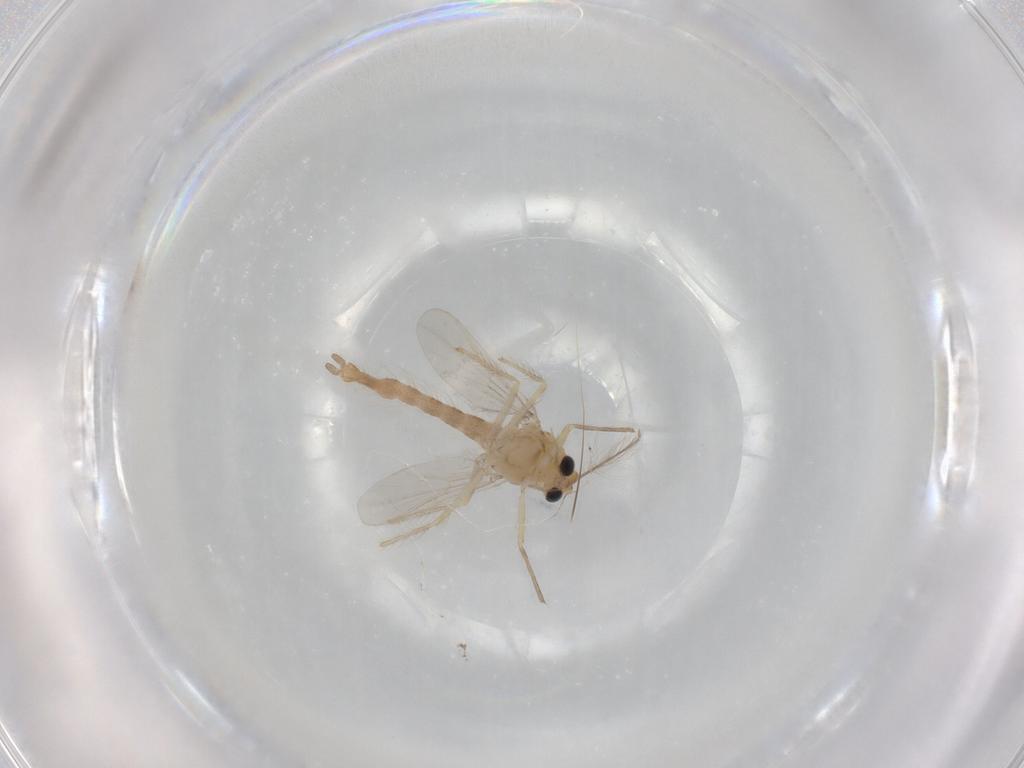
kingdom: Animalia
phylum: Arthropoda
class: Insecta
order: Diptera
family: Chironomidae
